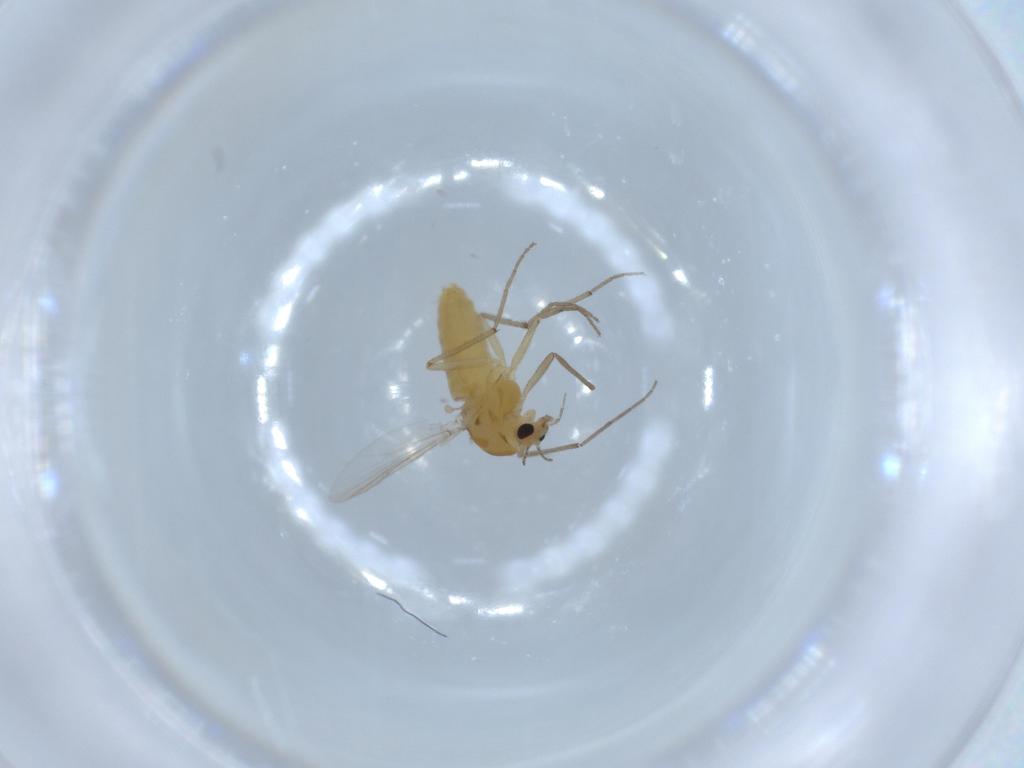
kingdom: Animalia
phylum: Arthropoda
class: Insecta
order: Diptera
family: Chironomidae
